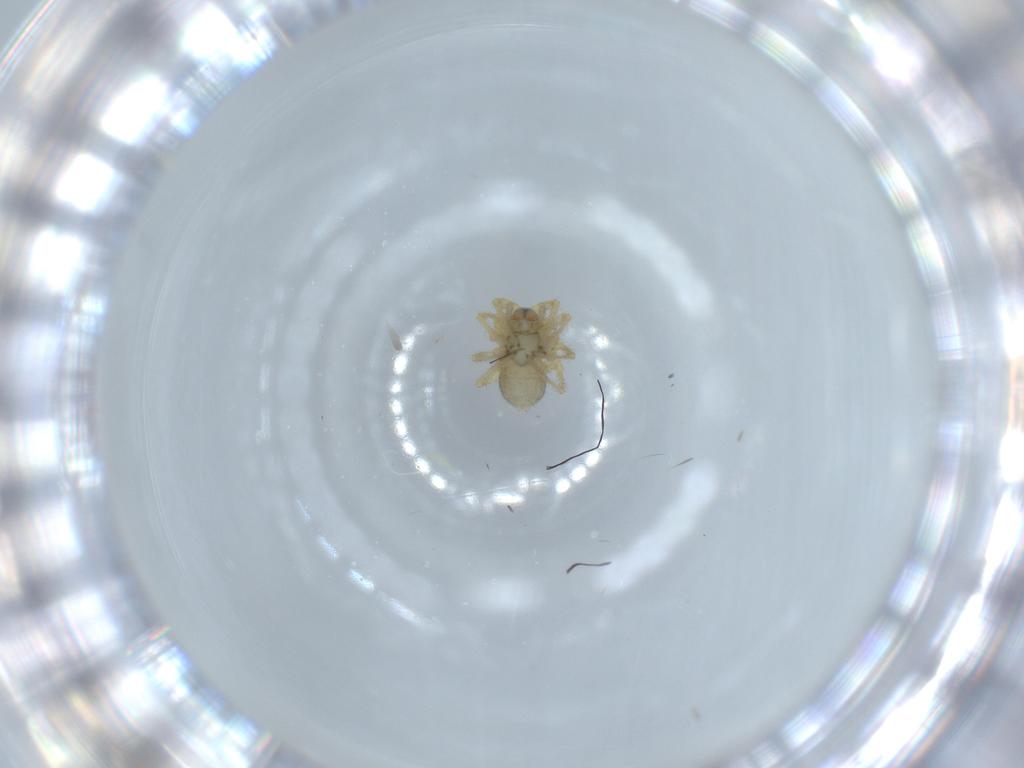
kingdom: Animalia
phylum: Arthropoda
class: Arachnida
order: Araneae
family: Linyphiidae
